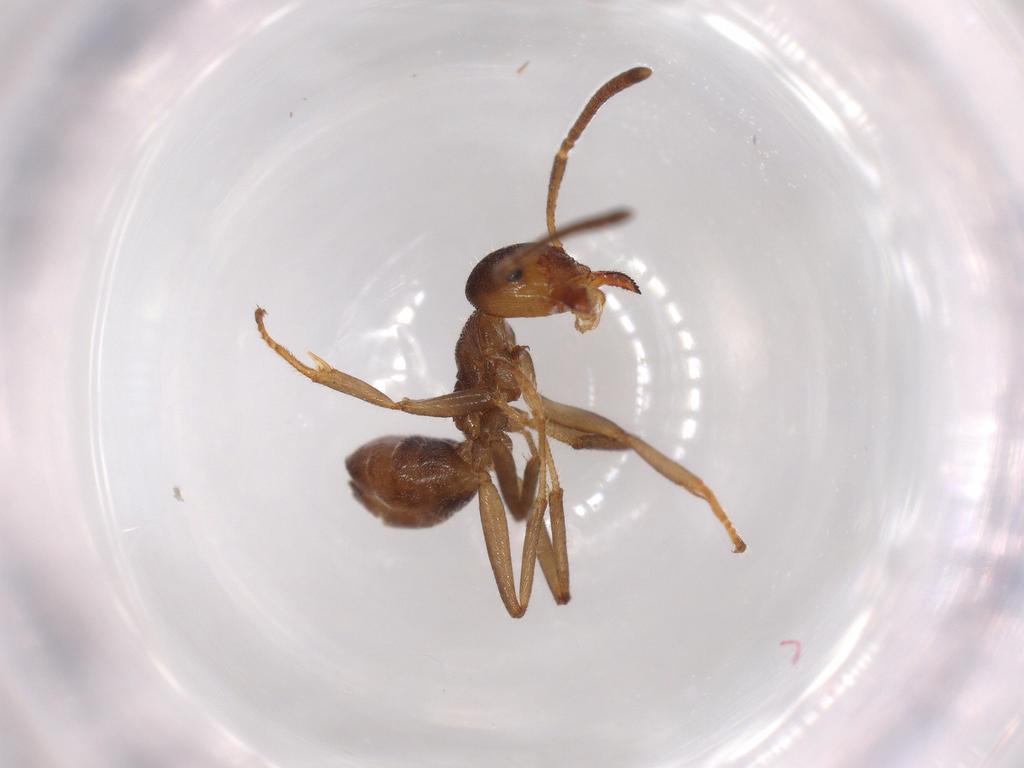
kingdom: Animalia
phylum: Arthropoda
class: Insecta
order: Hymenoptera
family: Formicidae
